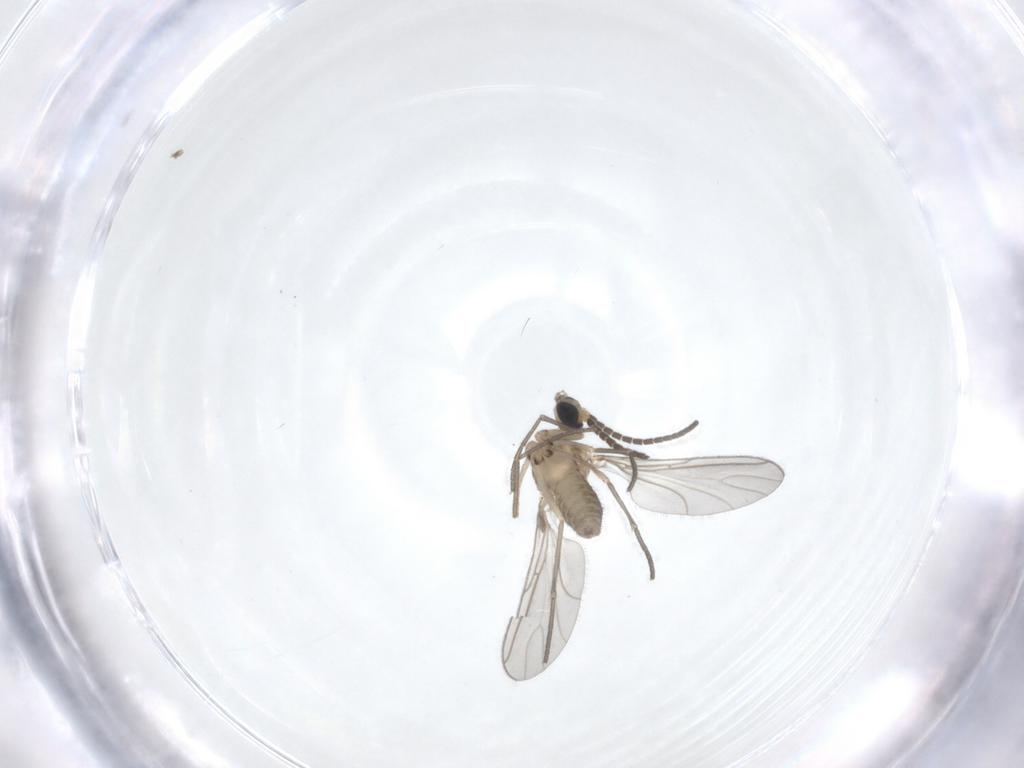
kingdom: Animalia
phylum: Arthropoda
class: Insecta
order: Diptera
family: Sciaridae
